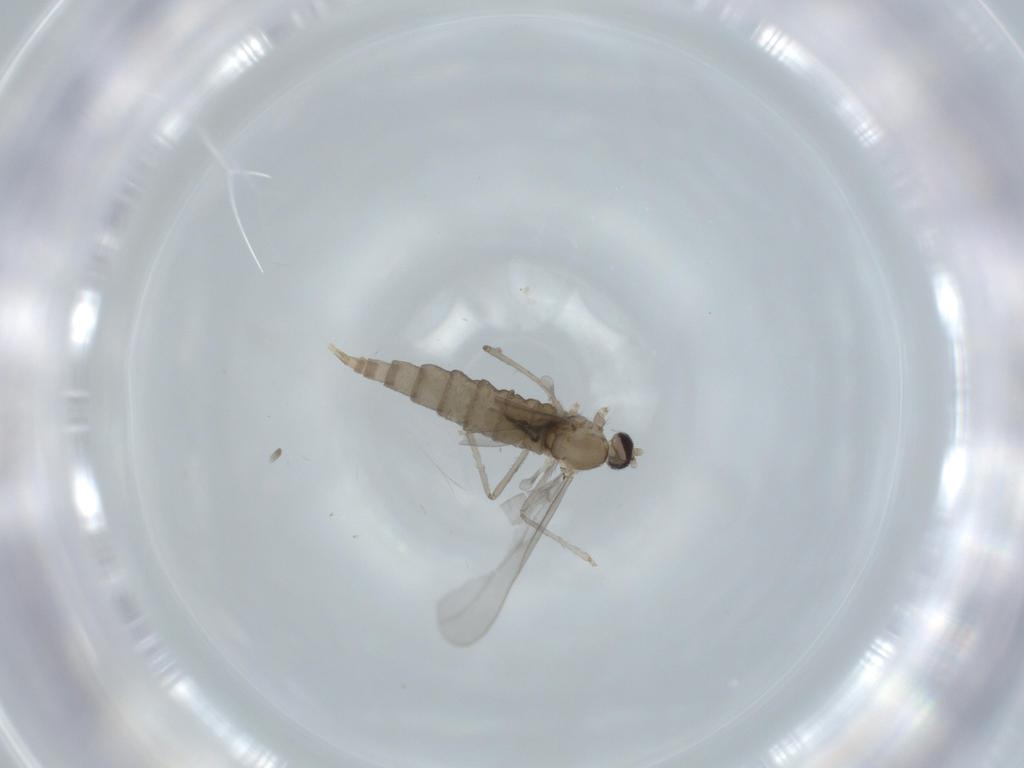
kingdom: Animalia
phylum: Arthropoda
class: Insecta
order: Diptera
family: Cecidomyiidae
